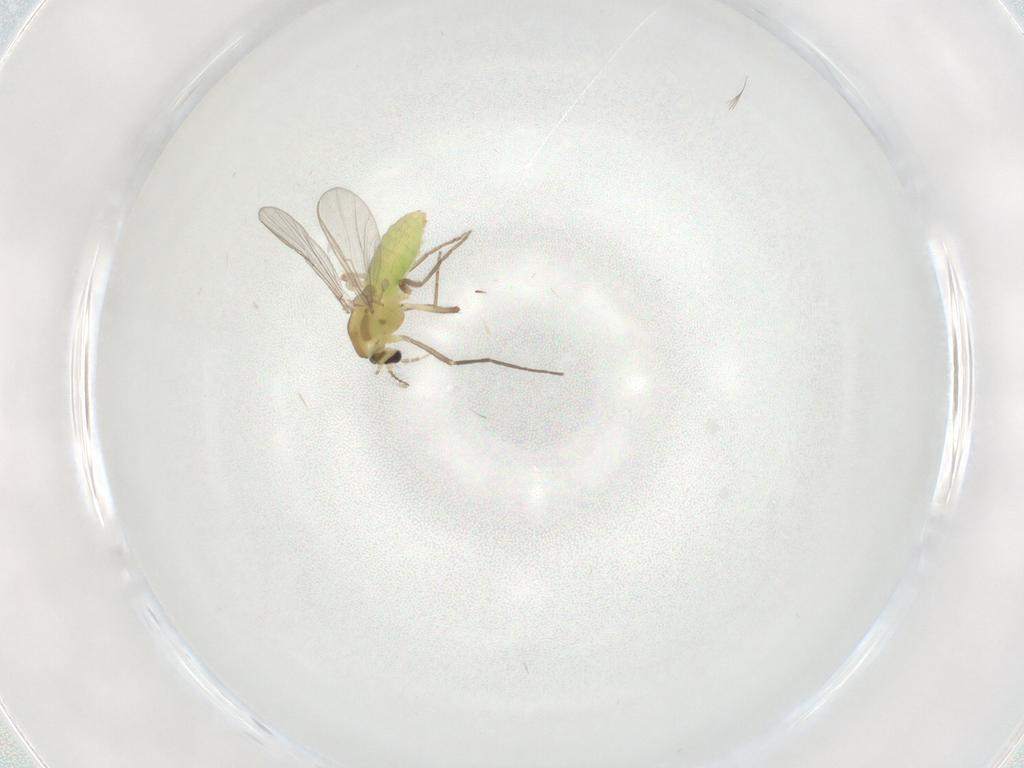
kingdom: Animalia
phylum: Arthropoda
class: Insecta
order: Diptera
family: Chironomidae
